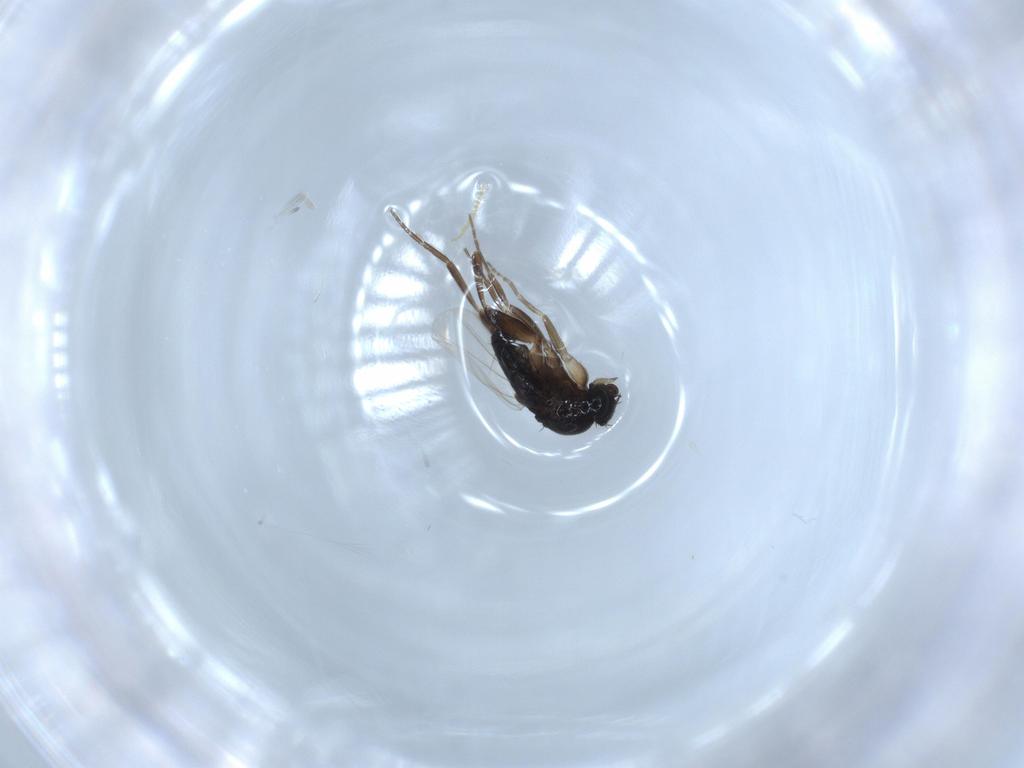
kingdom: Animalia
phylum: Arthropoda
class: Insecta
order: Diptera
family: Phoridae
